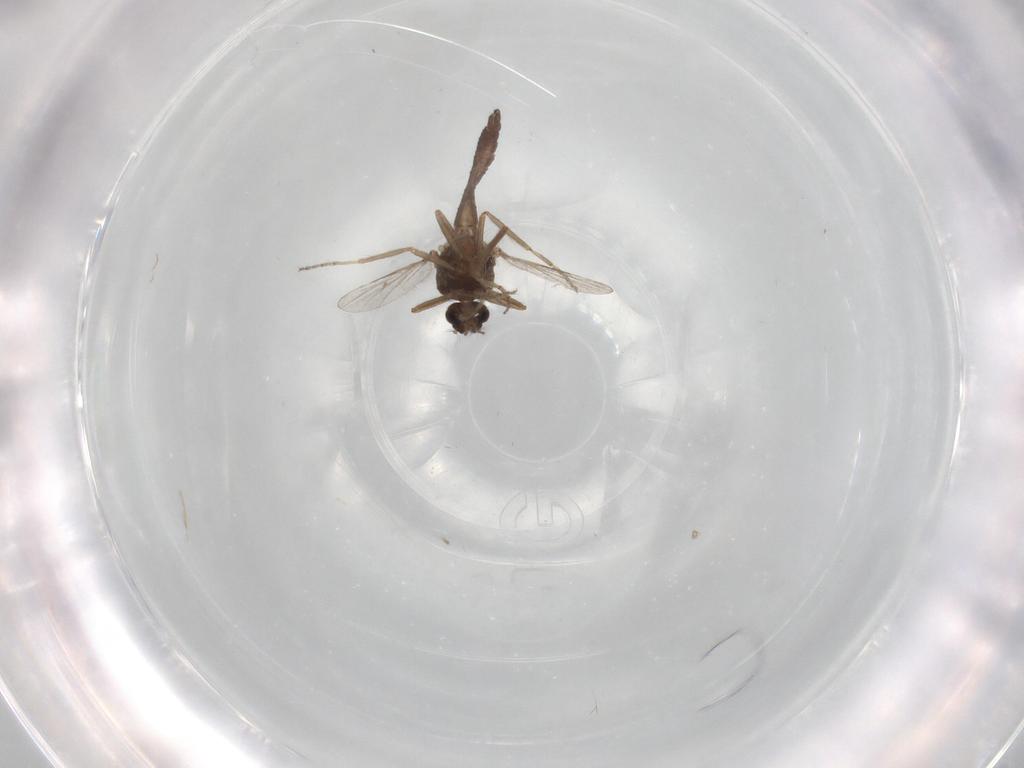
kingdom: Animalia
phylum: Arthropoda
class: Insecta
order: Diptera
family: Ceratopogonidae
